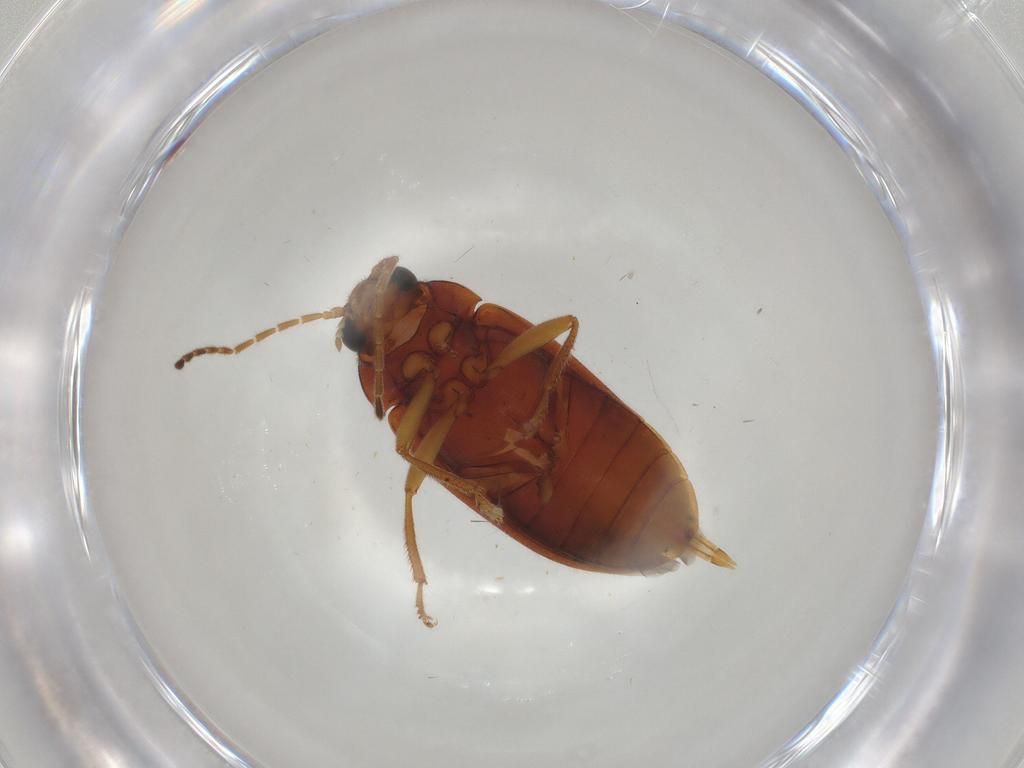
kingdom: Animalia
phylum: Arthropoda
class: Insecta
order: Coleoptera
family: Ptilodactylidae
